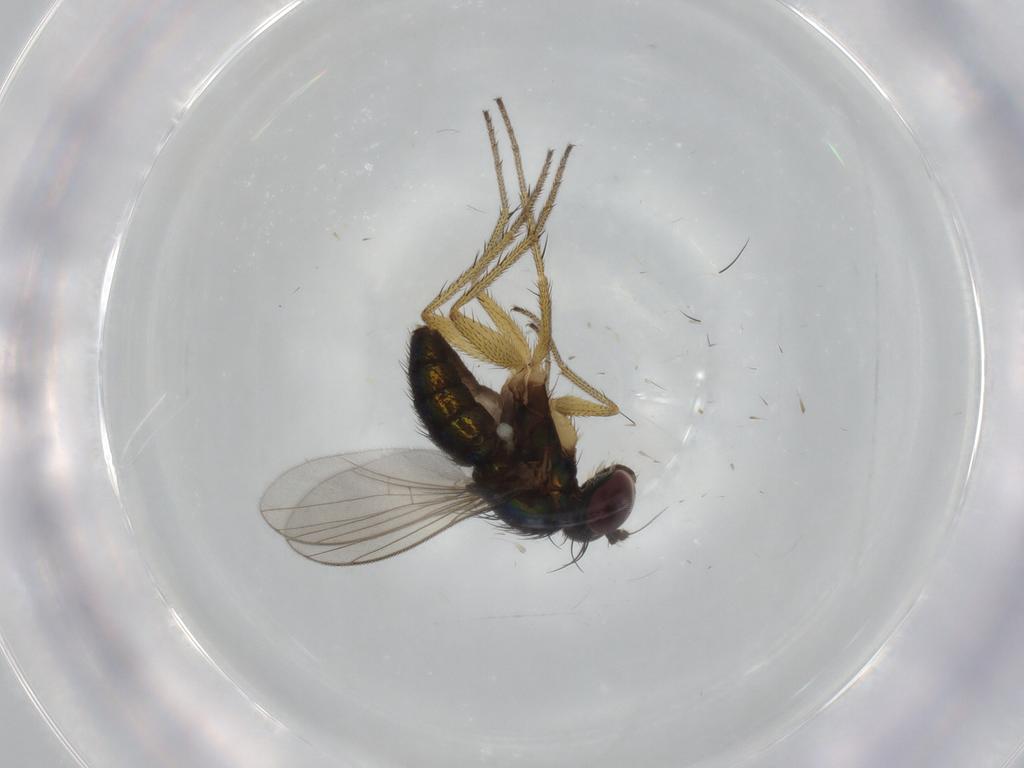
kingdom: Animalia
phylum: Arthropoda
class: Insecta
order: Diptera
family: Dolichopodidae
